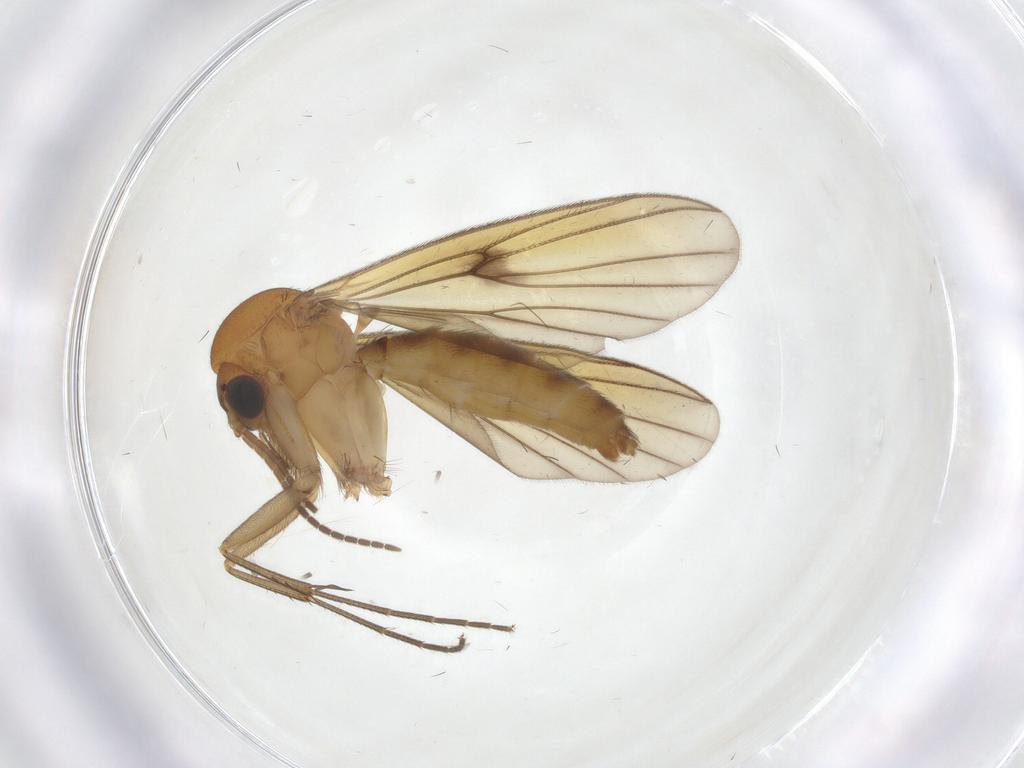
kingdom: Animalia
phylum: Arthropoda
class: Insecta
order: Diptera
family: Mycetophilidae
